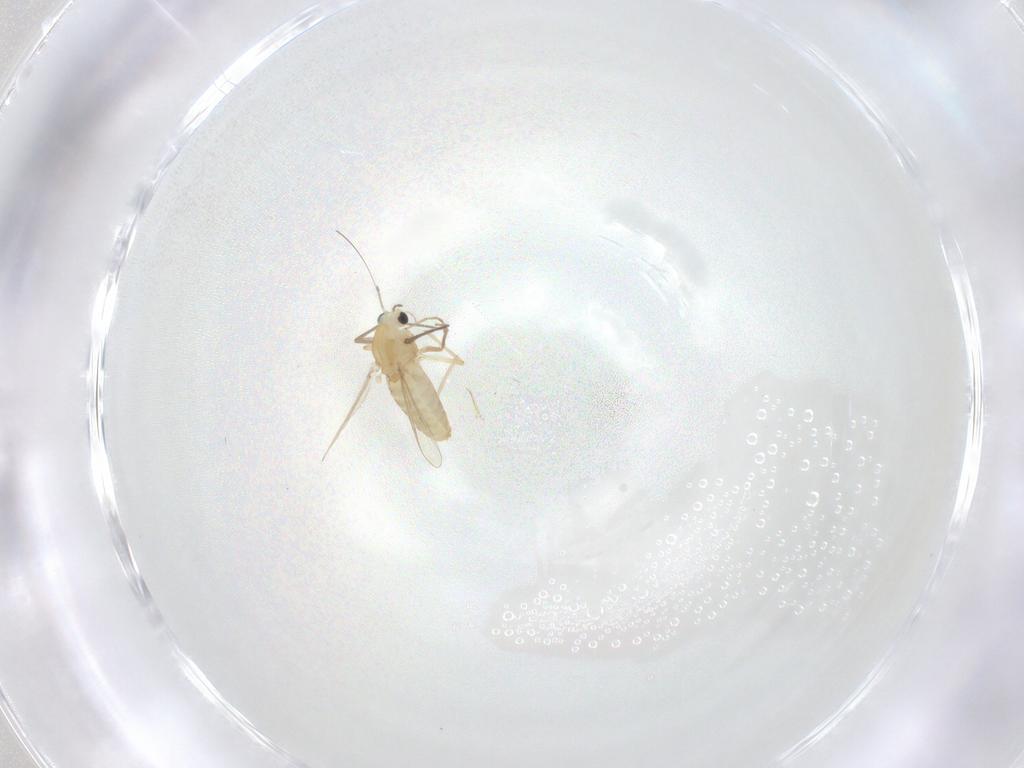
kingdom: Animalia
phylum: Arthropoda
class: Insecta
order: Diptera
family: Chironomidae
